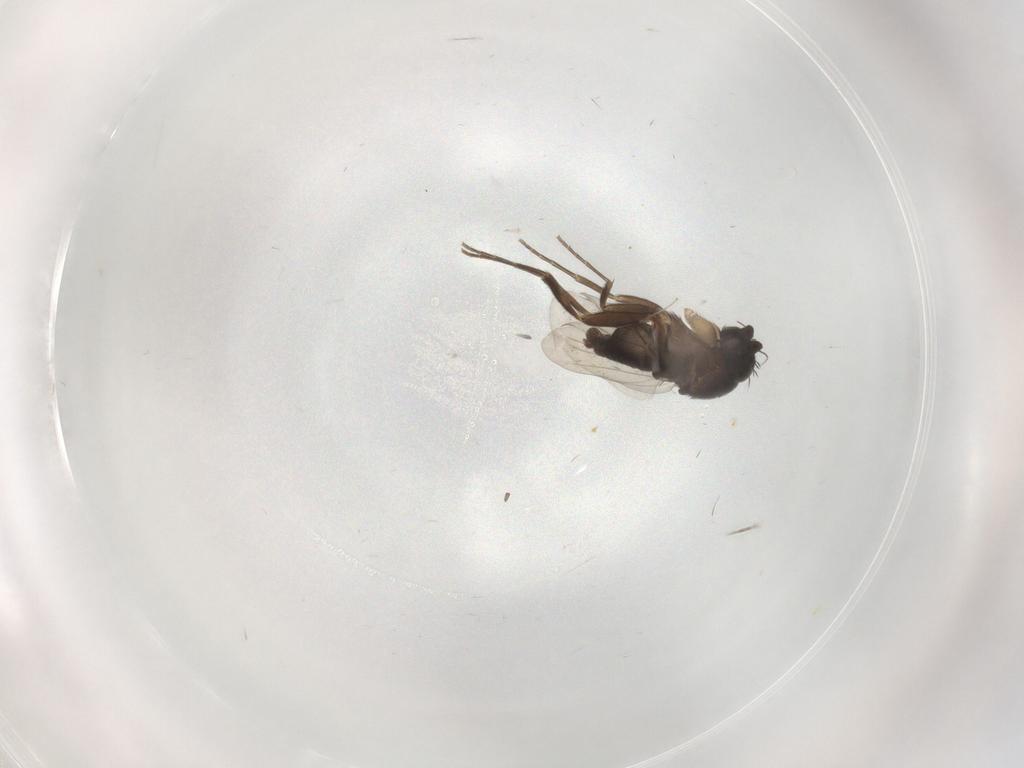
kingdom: Animalia
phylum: Arthropoda
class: Insecta
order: Diptera
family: Cecidomyiidae
